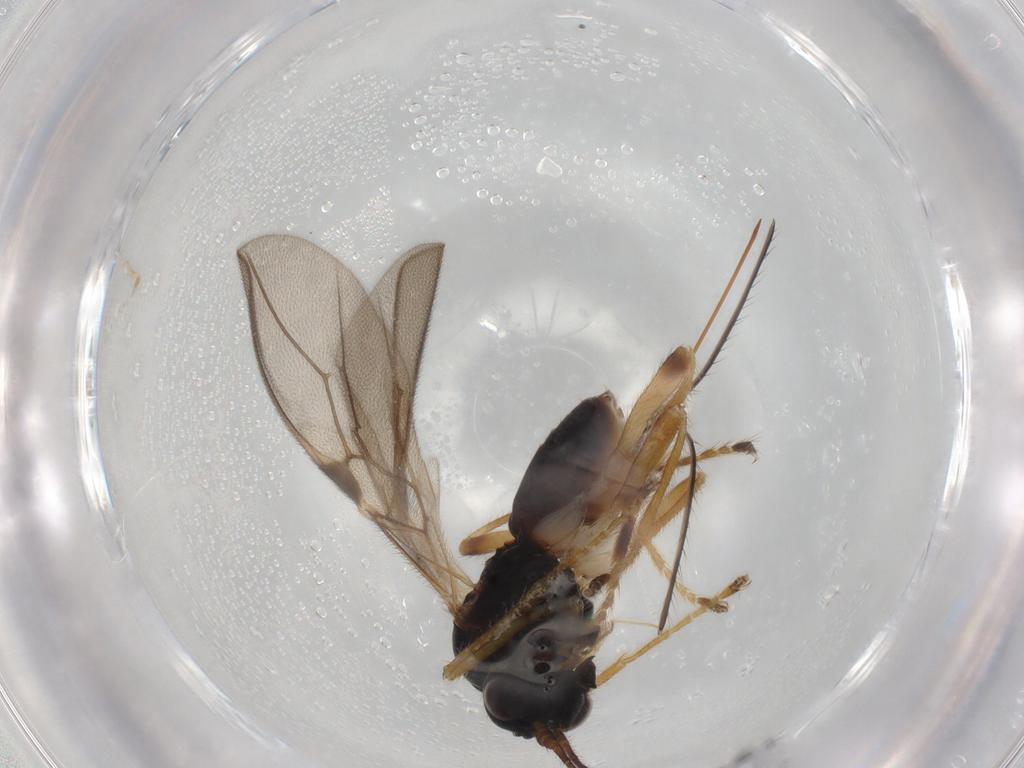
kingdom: Animalia
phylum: Arthropoda
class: Insecta
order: Hymenoptera
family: Braconidae
